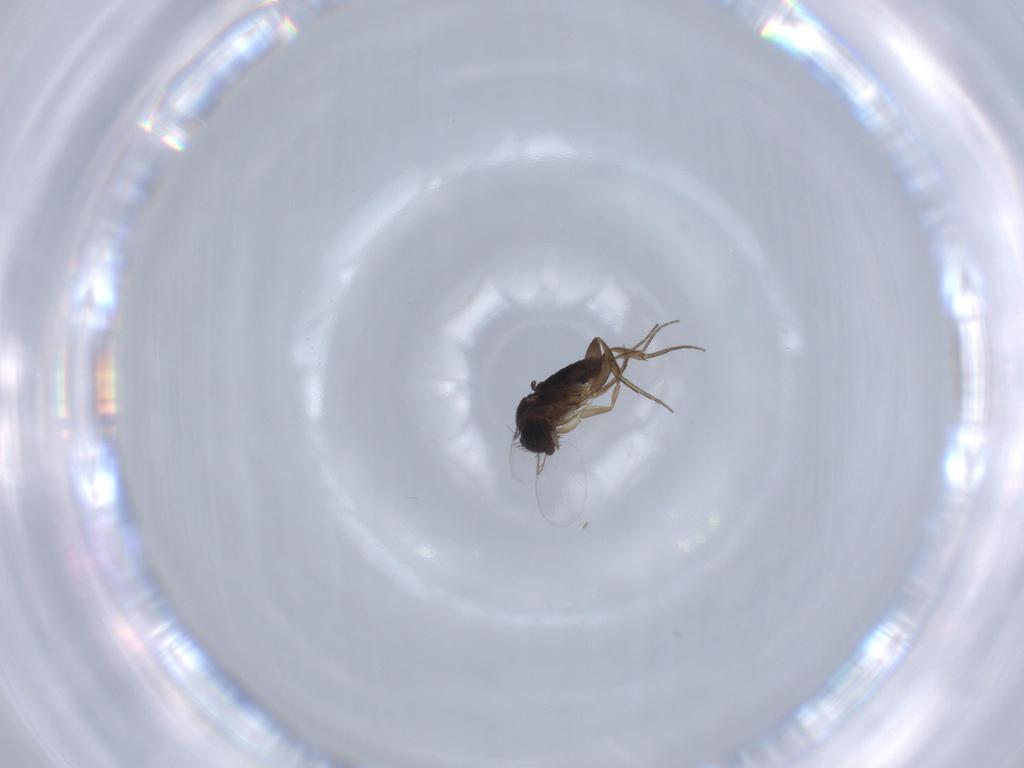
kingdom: Animalia
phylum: Arthropoda
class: Insecta
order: Diptera
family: Phoridae
